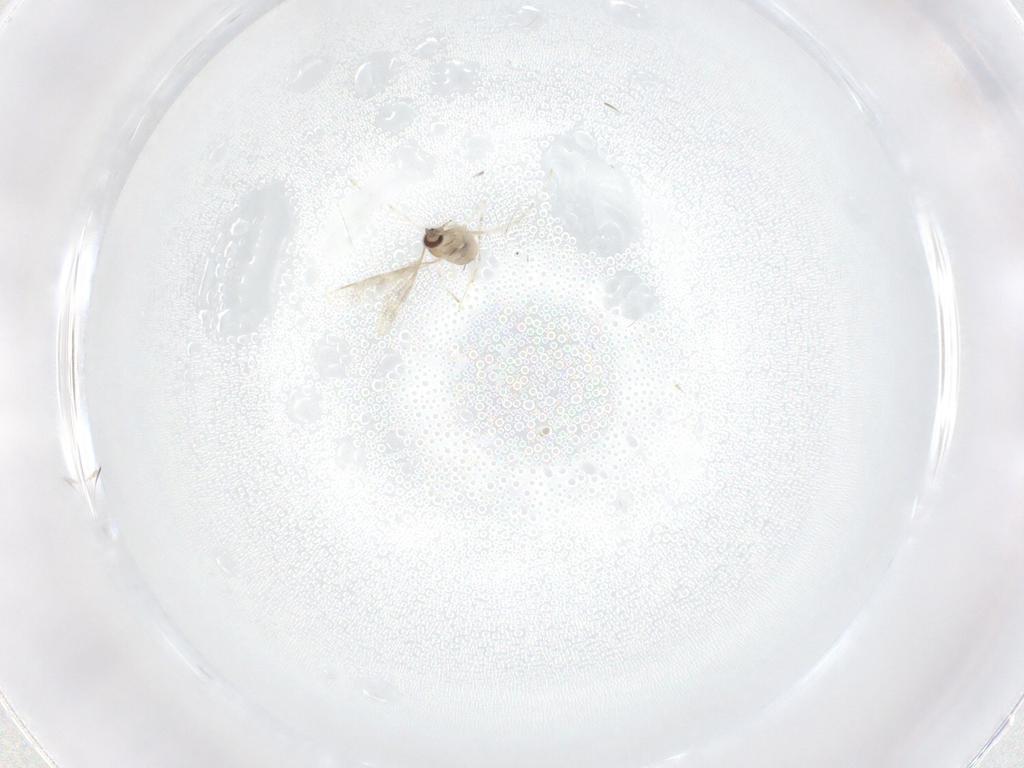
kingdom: Animalia
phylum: Arthropoda
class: Insecta
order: Diptera
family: Cecidomyiidae
